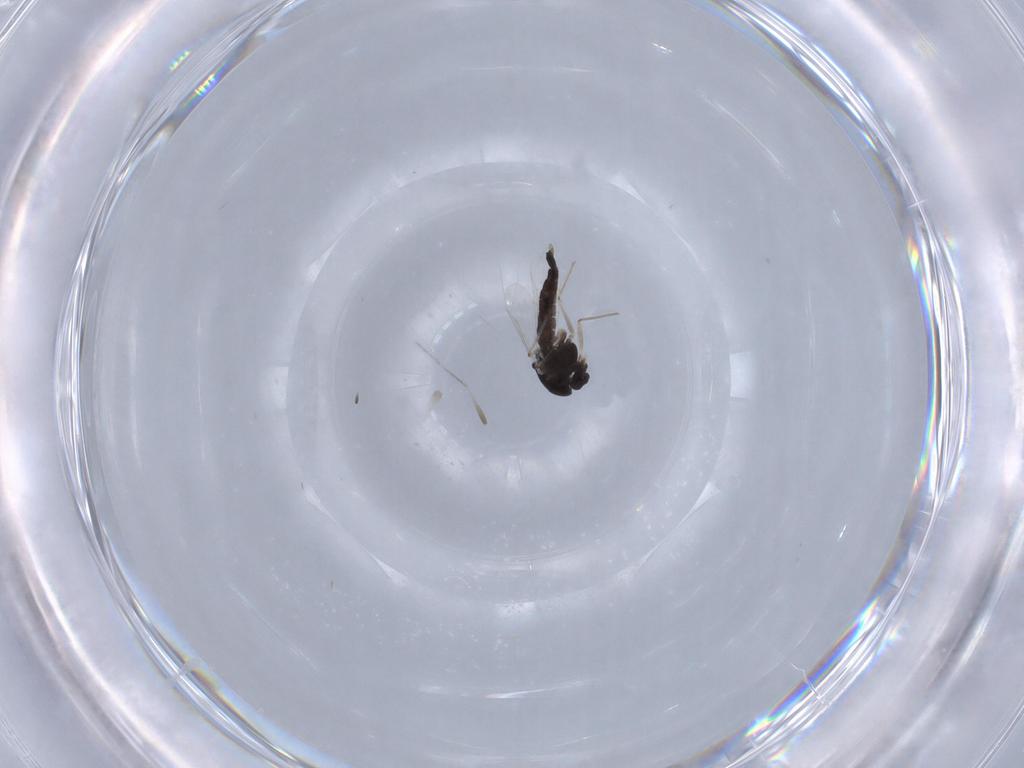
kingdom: Animalia
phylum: Arthropoda
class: Insecta
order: Diptera
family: Chironomidae
